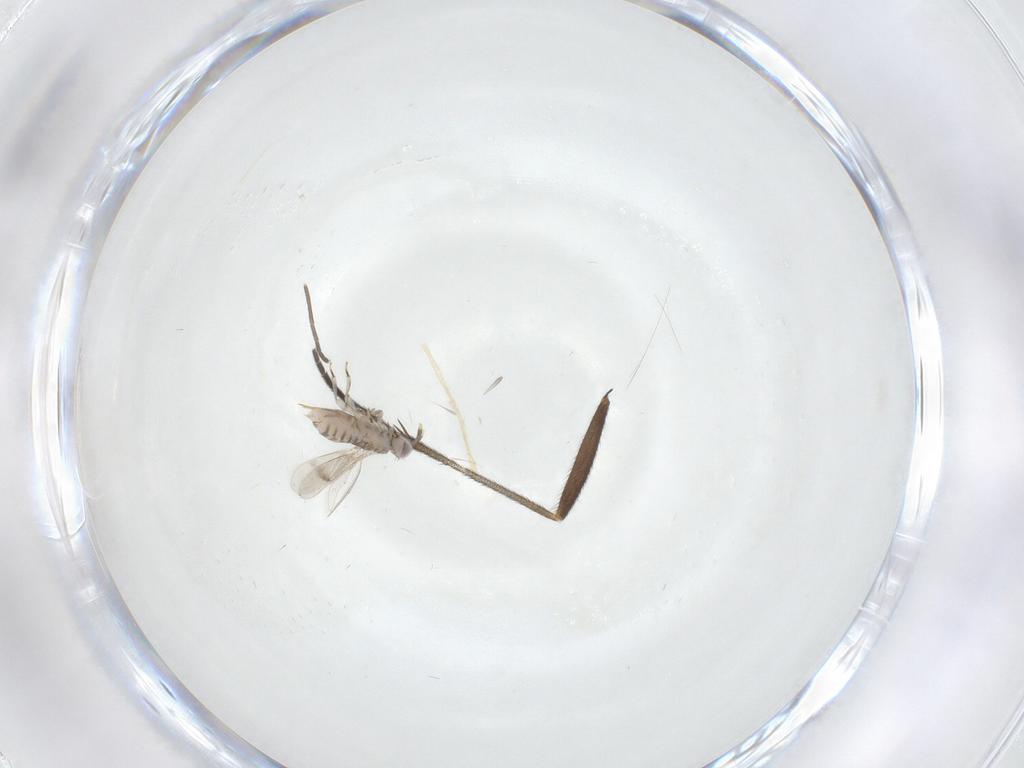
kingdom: Animalia
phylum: Arthropoda
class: Insecta
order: Hymenoptera
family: Aphelinidae
